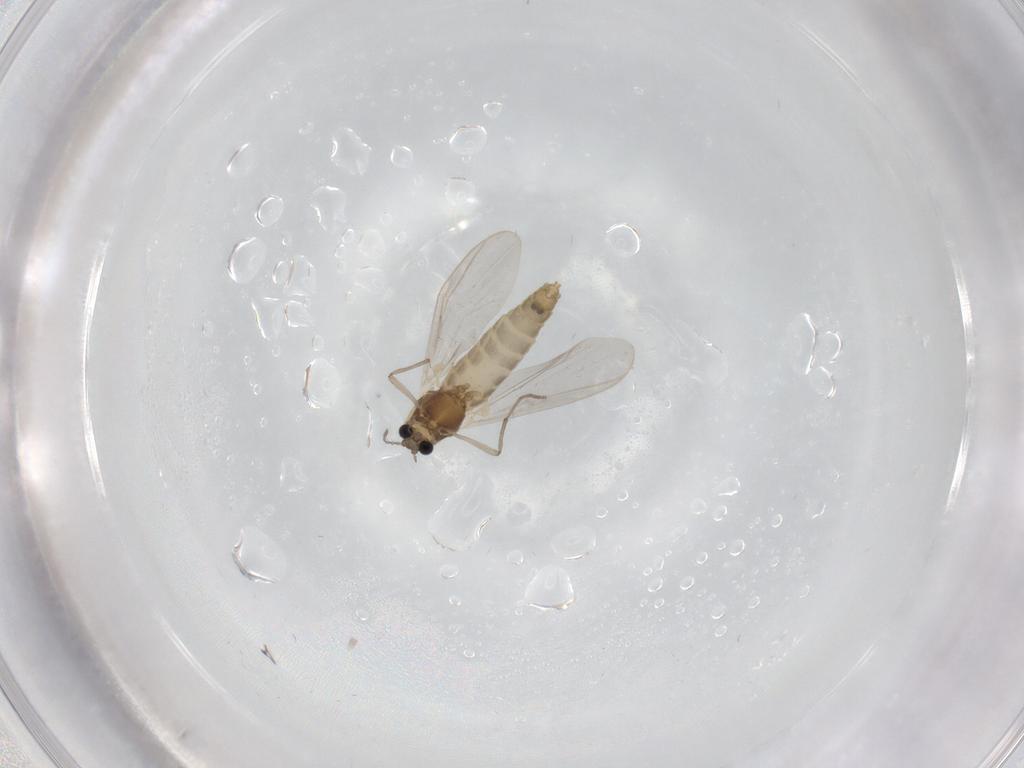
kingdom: Animalia
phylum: Arthropoda
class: Insecta
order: Diptera
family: Chironomidae
